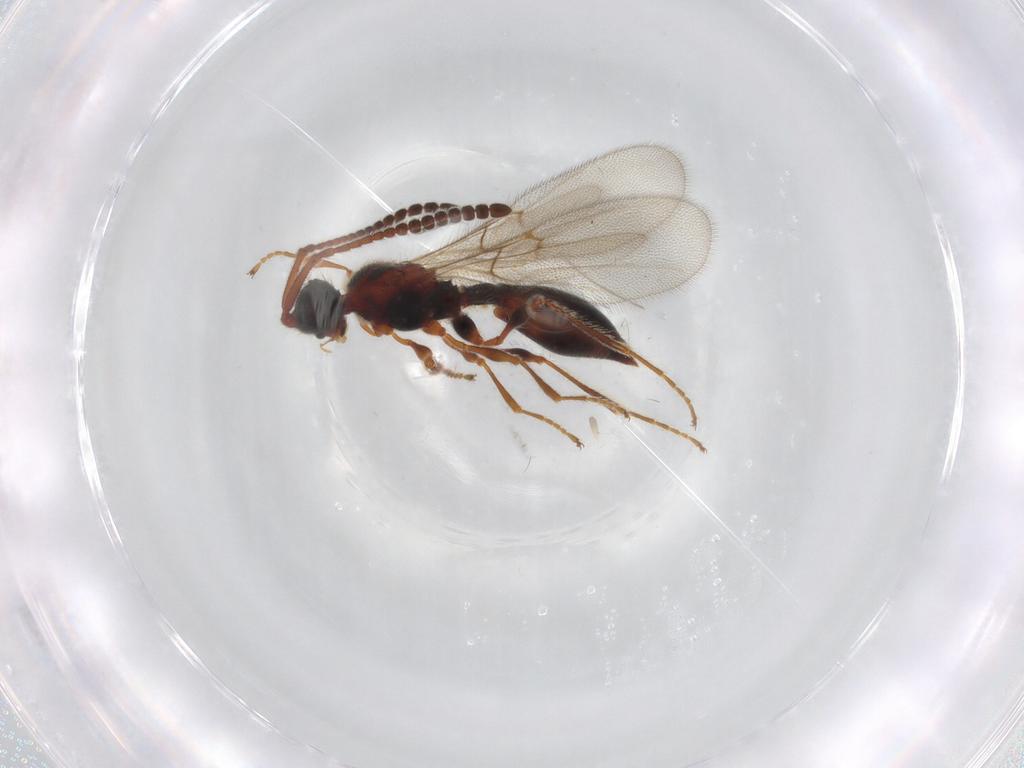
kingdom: Animalia
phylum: Arthropoda
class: Insecta
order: Hymenoptera
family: Diapriidae
